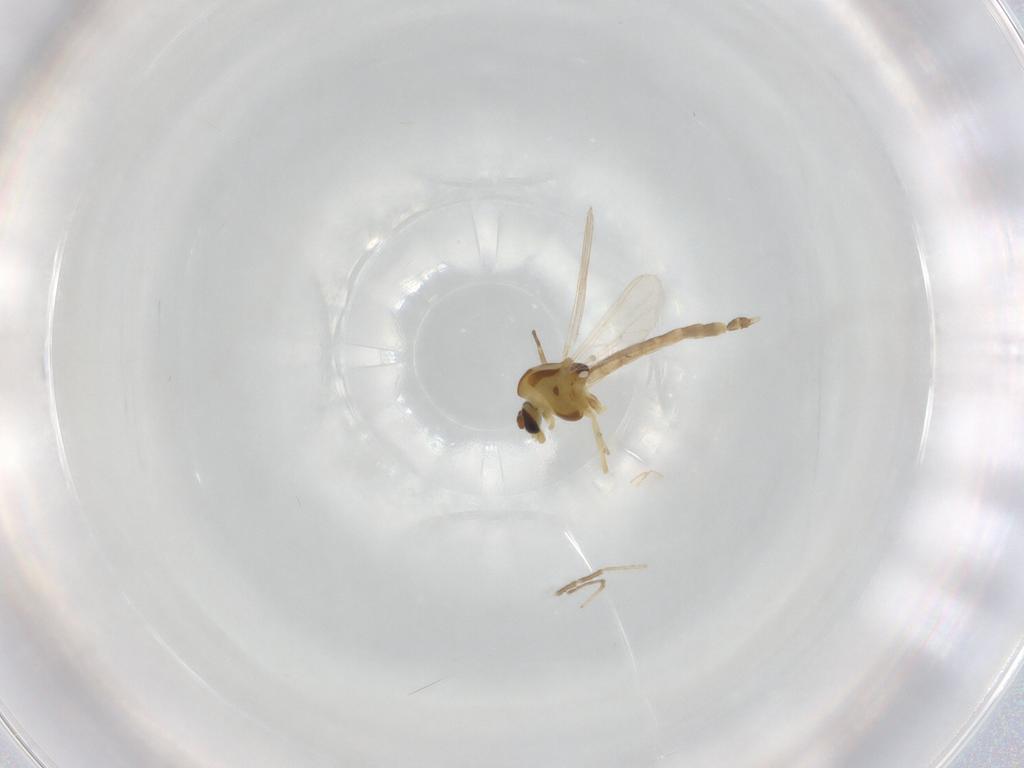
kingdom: Animalia
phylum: Arthropoda
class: Insecta
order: Diptera
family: Chironomidae
